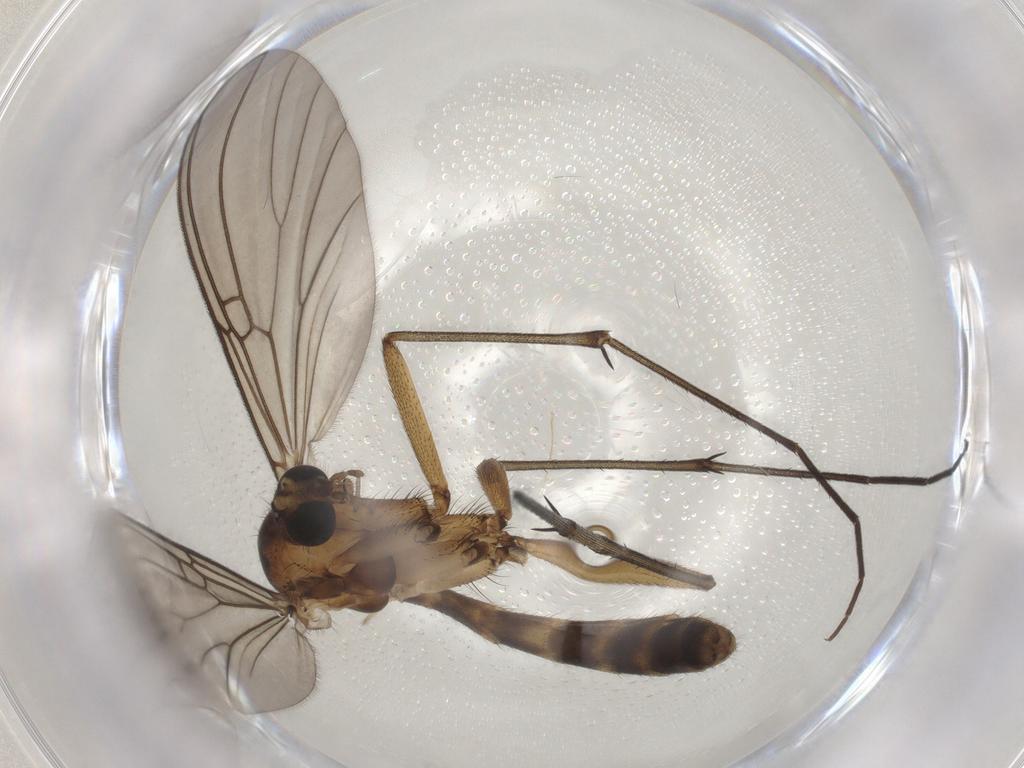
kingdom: Animalia
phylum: Arthropoda
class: Insecta
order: Diptera
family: Mycetophilidae
